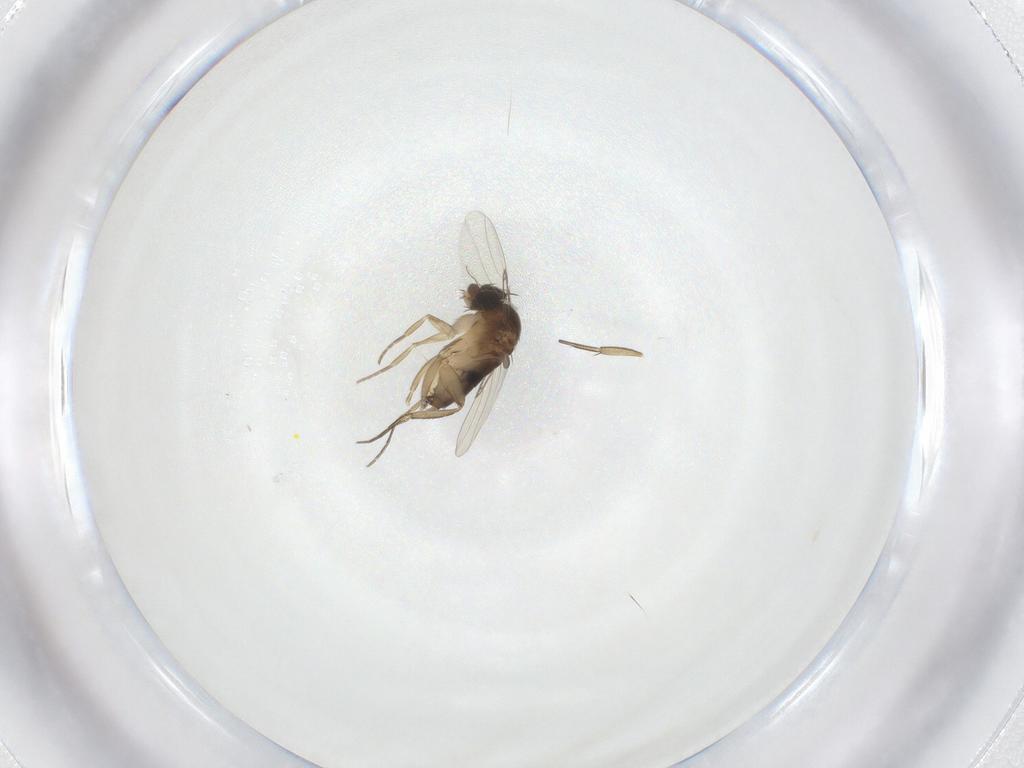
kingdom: Animalia
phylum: Arthropoda
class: Insecta
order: Diptera
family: Phoridae
